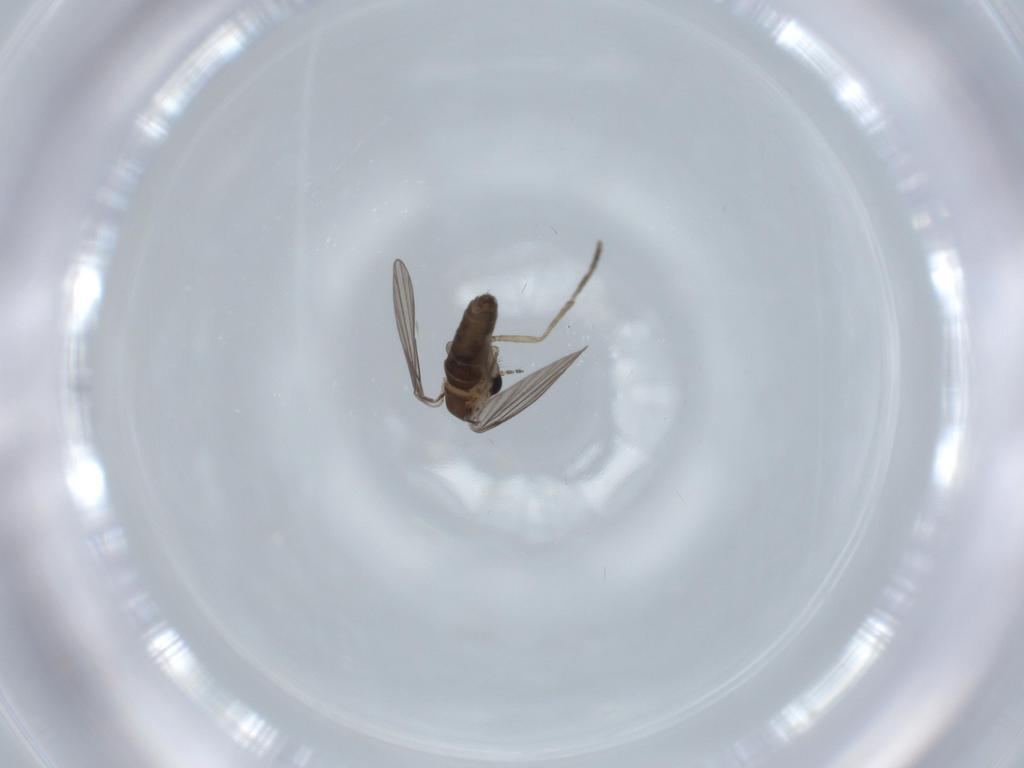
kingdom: Animalia
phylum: Arthropoda
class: Insecta
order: Diptera
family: Psychodidae
